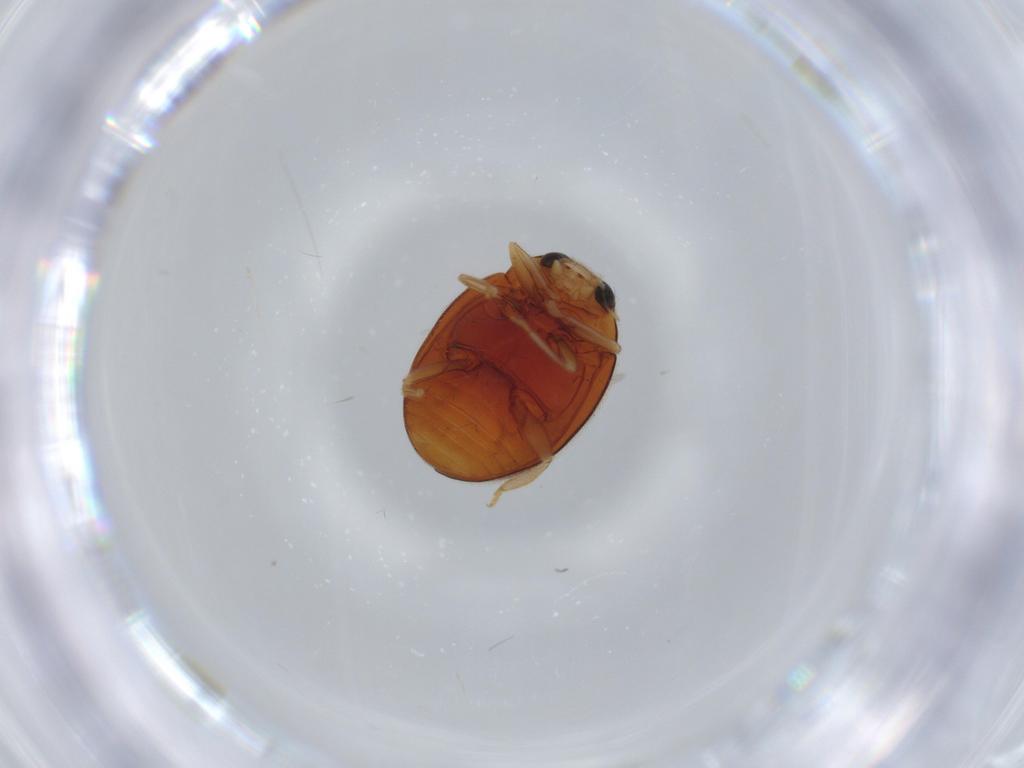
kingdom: Animalia
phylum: Arthropoda
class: Insecta
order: Coleoptera
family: Coccinellidae
